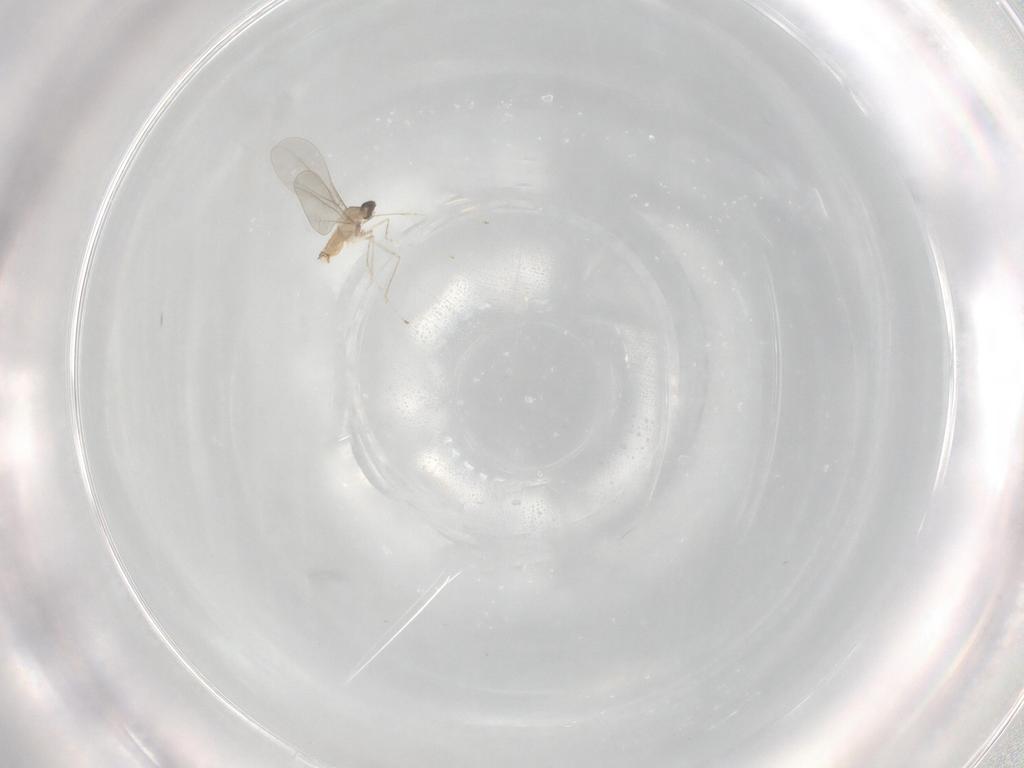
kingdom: Animalia
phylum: Arthropoda
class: Insecta
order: Diptera
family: Cecidomyiidae
